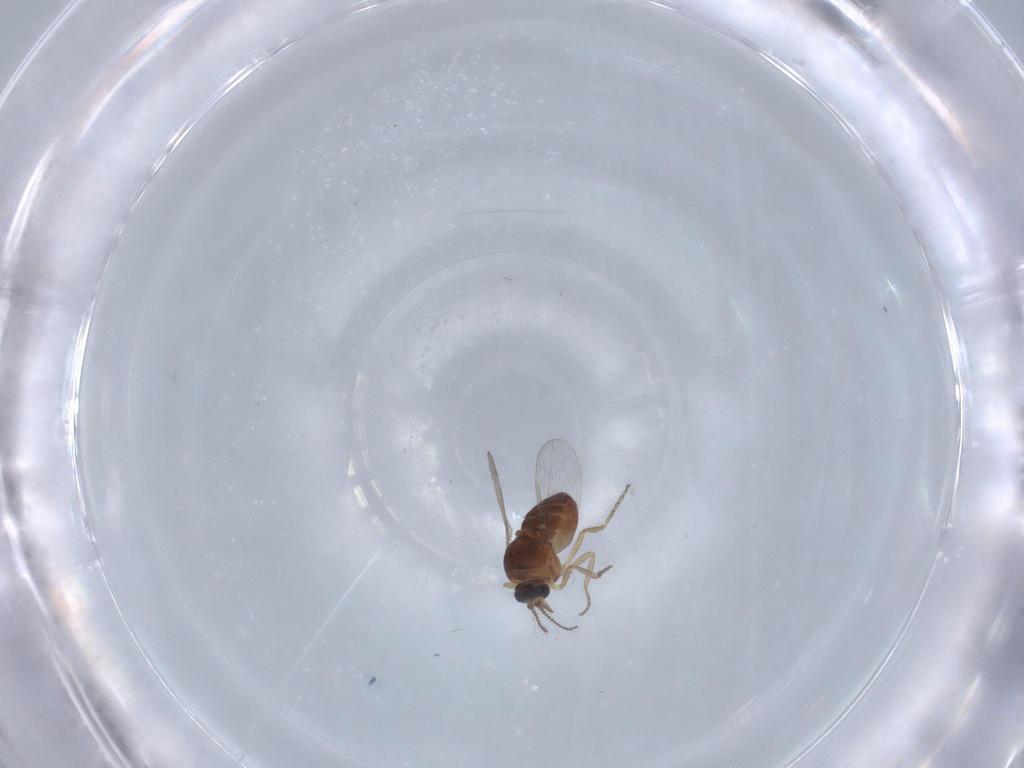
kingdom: Animalia
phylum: Arthropoda
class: Insecta
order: Diptera
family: Ceratopogonidae
